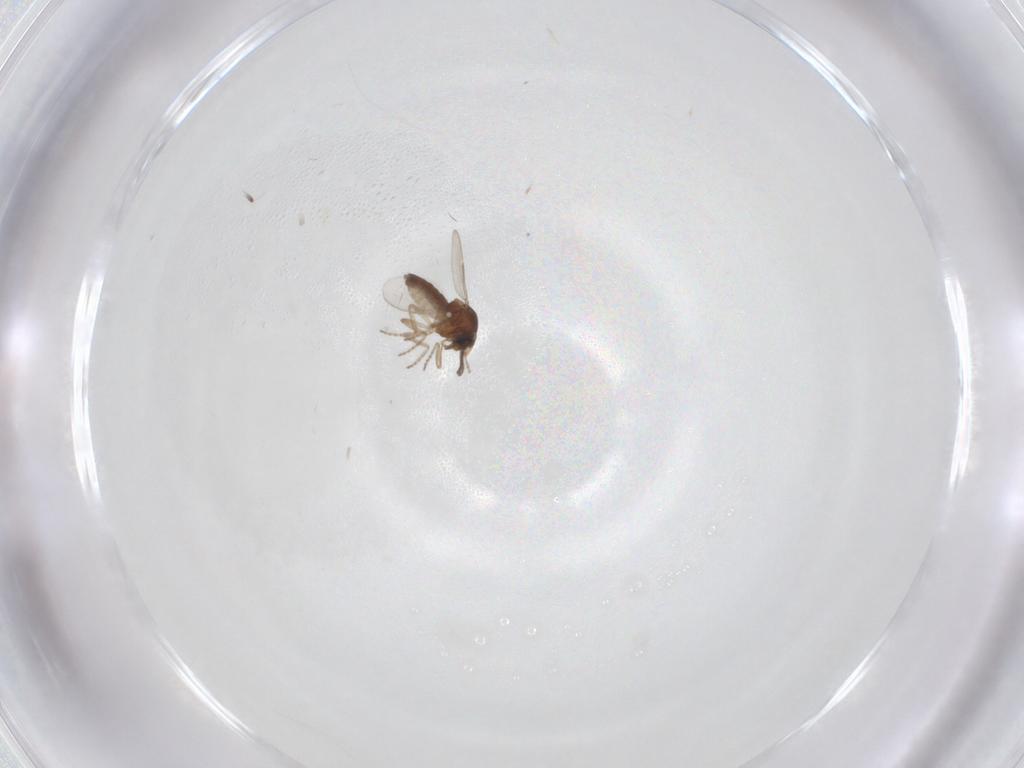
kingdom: Animalia
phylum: Arthropoda
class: Insecta
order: Diptera
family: Ceratopogonidae
